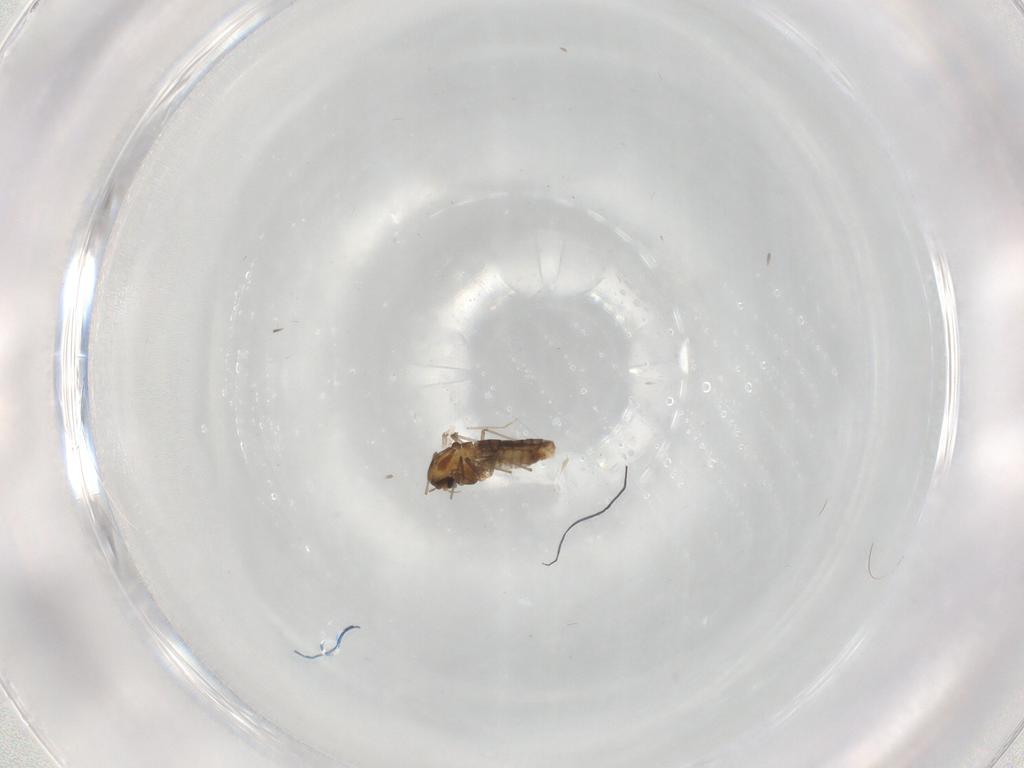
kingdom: Animalia
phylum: Arthropoda
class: Insecta
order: Diptera
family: Chironomidae
